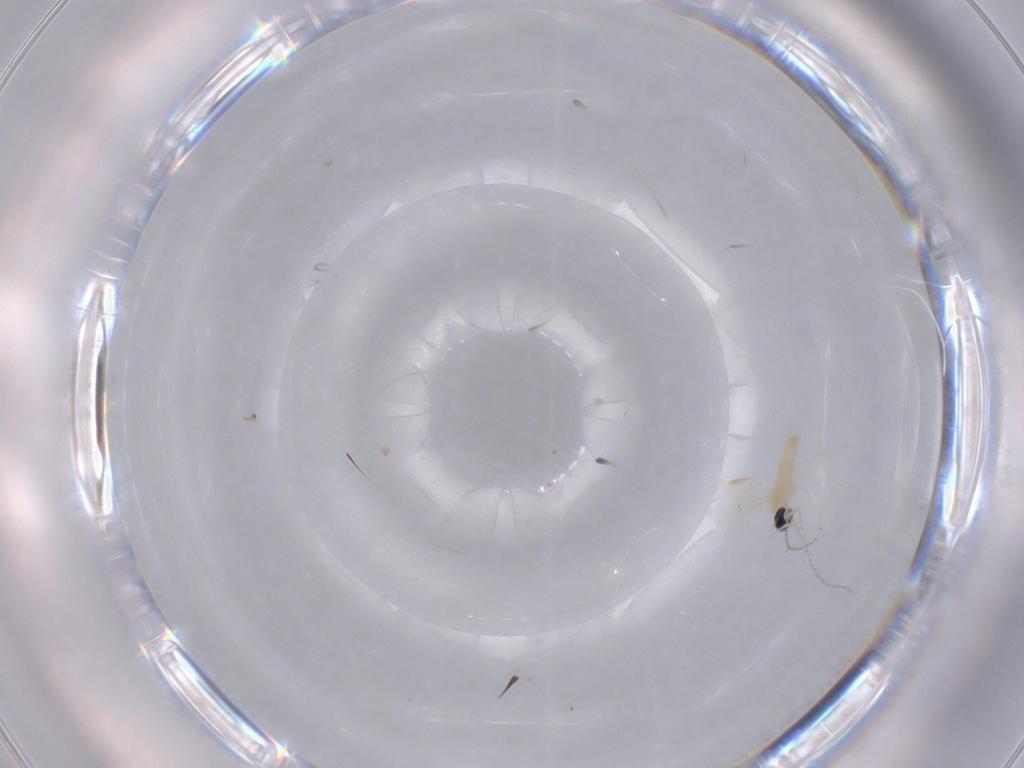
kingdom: Animalia
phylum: Arthropoda
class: Insecta
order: Diptera
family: Cecidomyiidae
